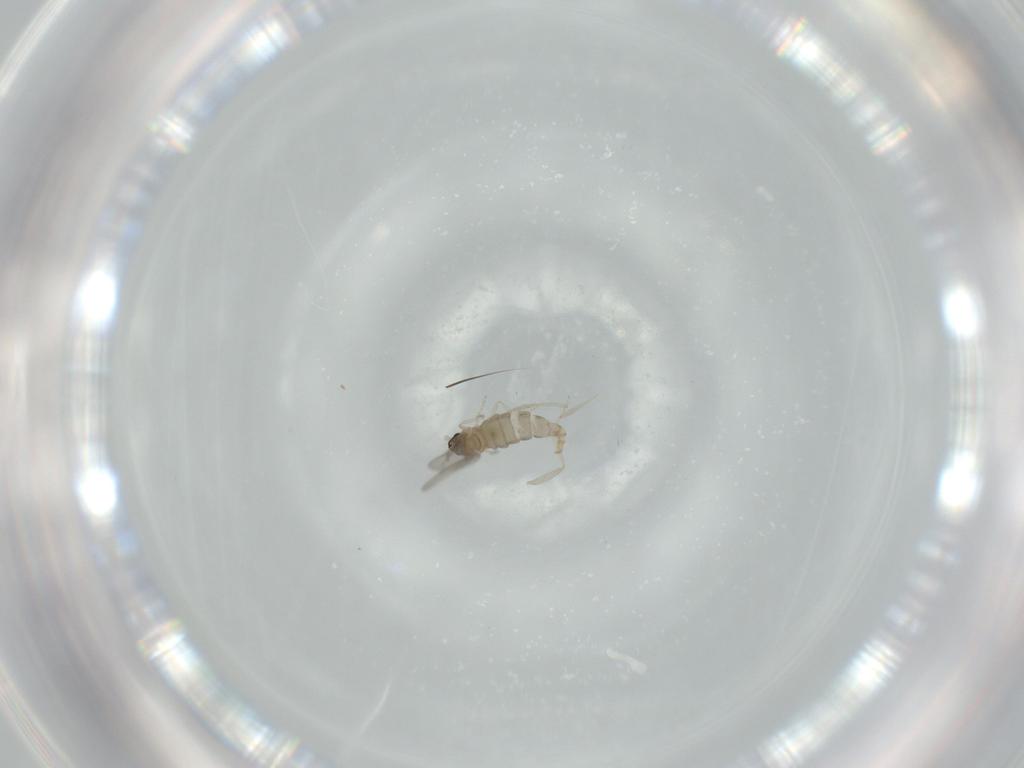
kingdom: Animalia
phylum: Arthropoda
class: Insecta
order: Diptera
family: Cecidomyiidae
